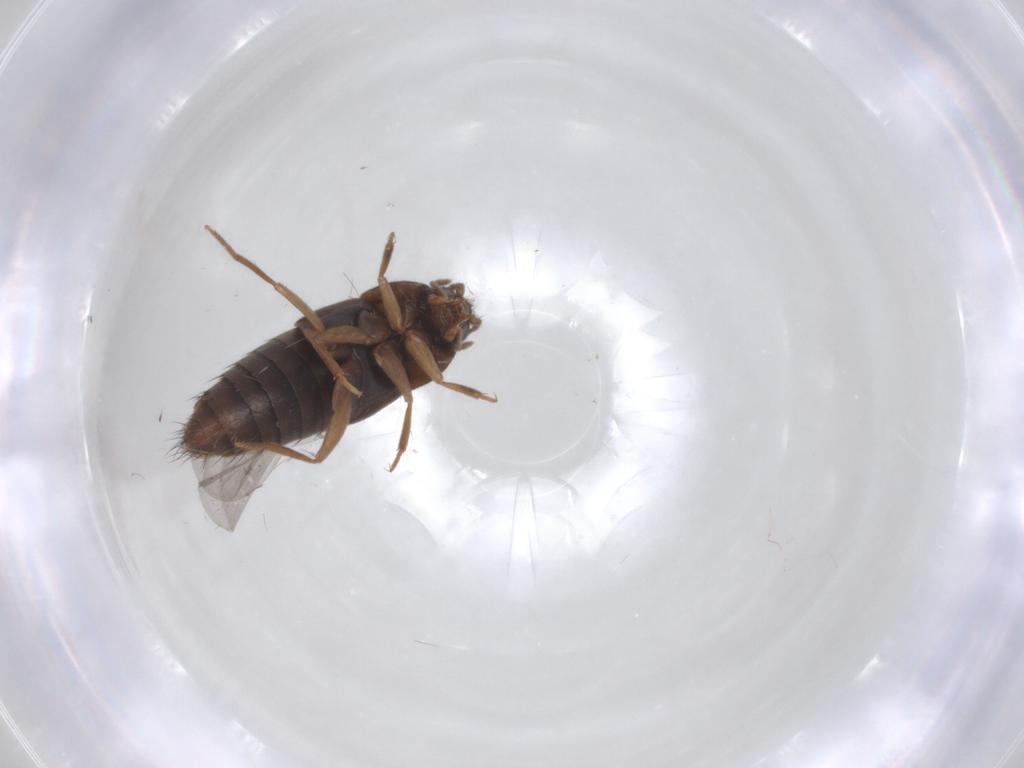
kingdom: Animalia
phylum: Arthropoda
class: Insecta
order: Coleoptera
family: Staphylinidae
